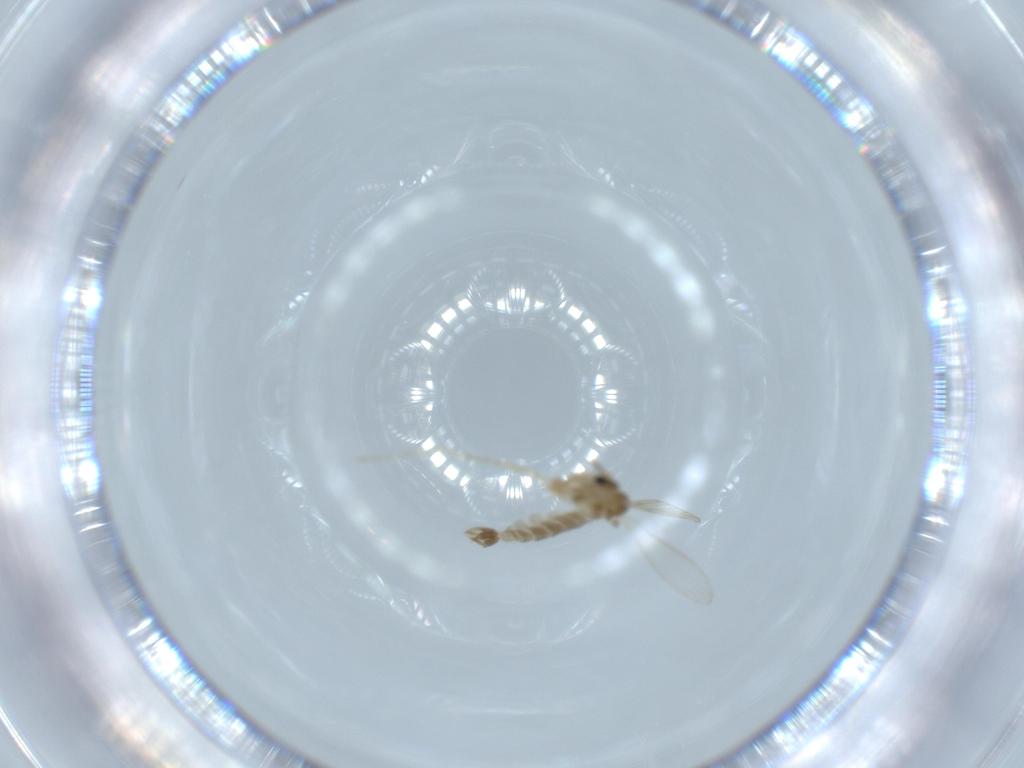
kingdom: Animalia
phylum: Arthropoda
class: Insecta
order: Diptera
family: Psychodidae
